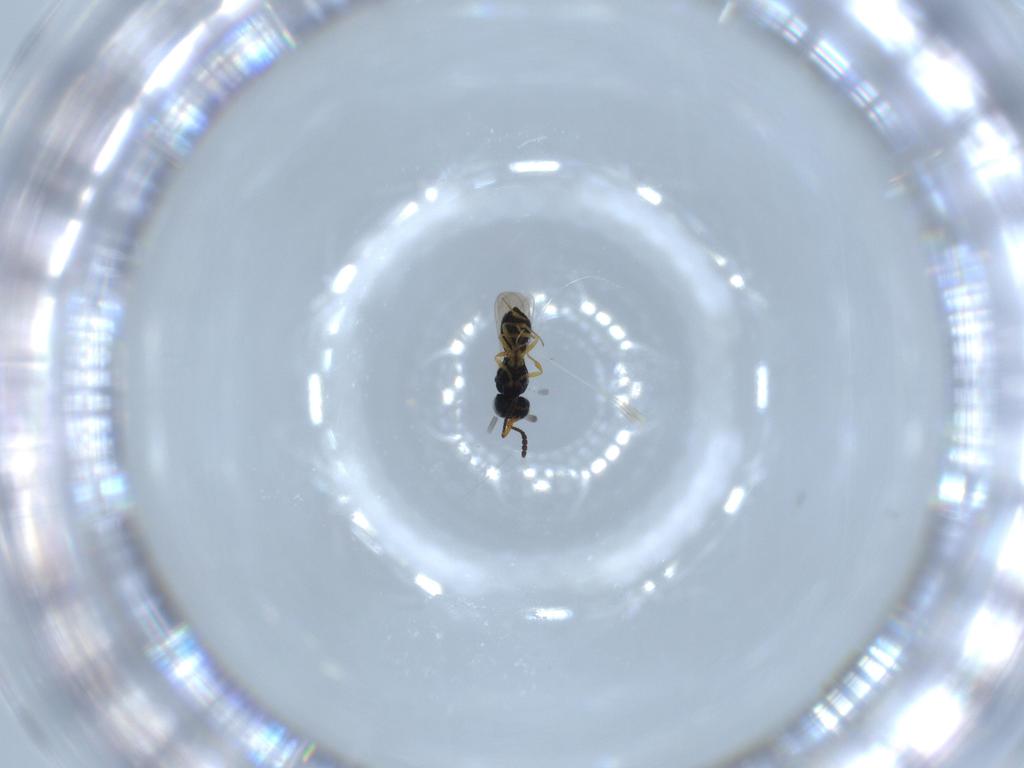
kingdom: Animalia
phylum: Arthropoda
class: Insecta
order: Hymenoptera
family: Scelionidae
